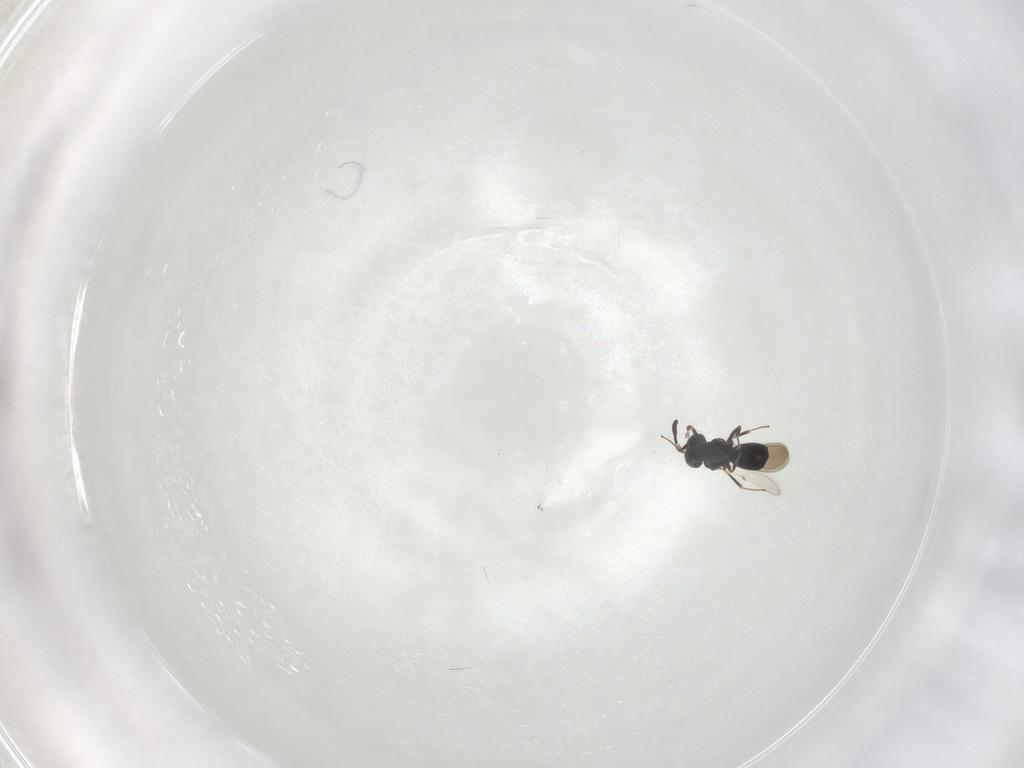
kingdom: Animalia
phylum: Arthropoda
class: Insecta
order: Hymenoptera
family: Scelionidae
